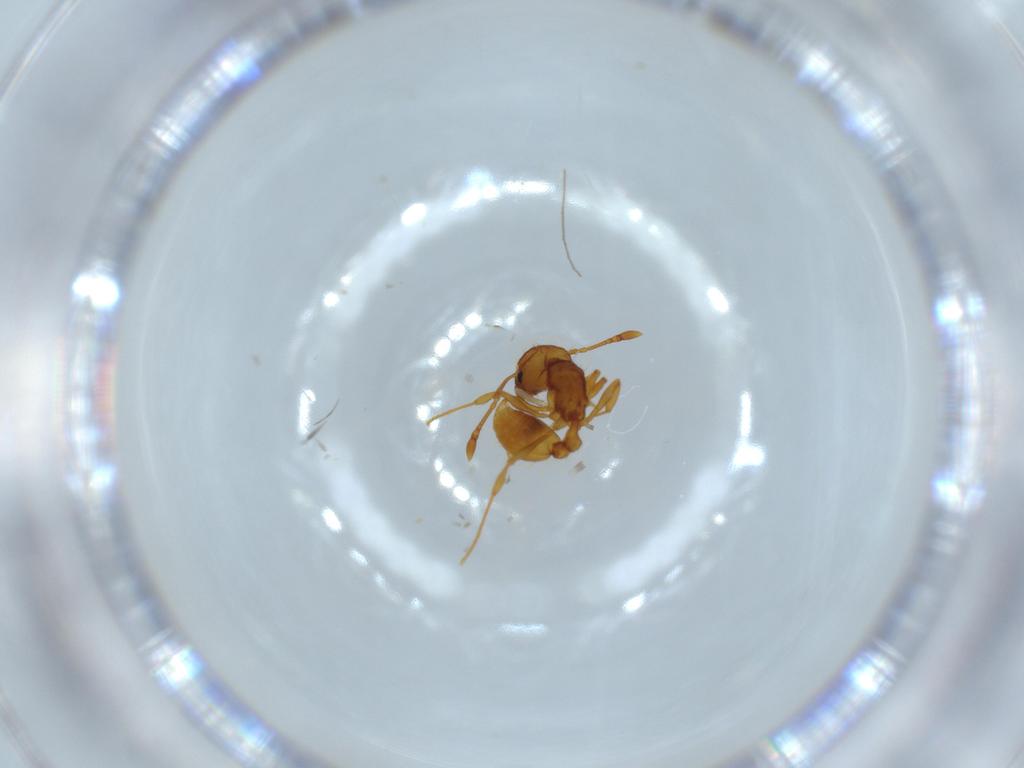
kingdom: Animalia
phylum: Arthropoda
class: Insecta
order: Hymenoptera
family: Formicidae
